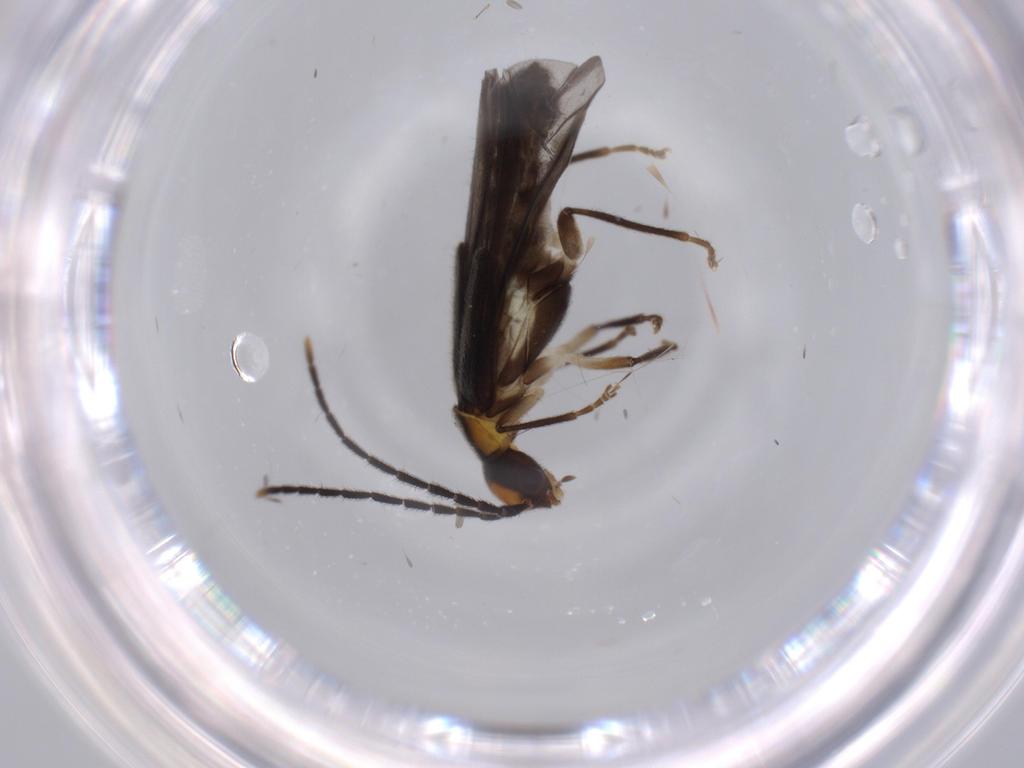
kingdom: Animalia
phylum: Arthropoda
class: Insecta
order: Coleoptera
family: Cantharidae
